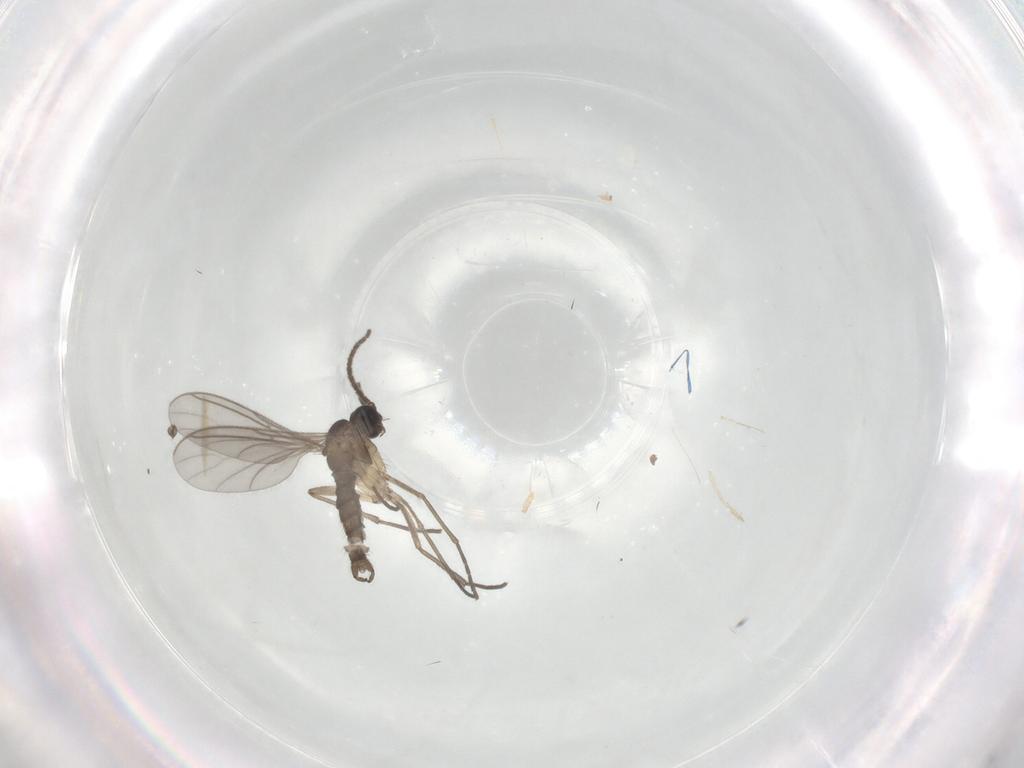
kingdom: Animalia
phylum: Arthropoda
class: Insecta
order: Diptera
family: Sciaridae
